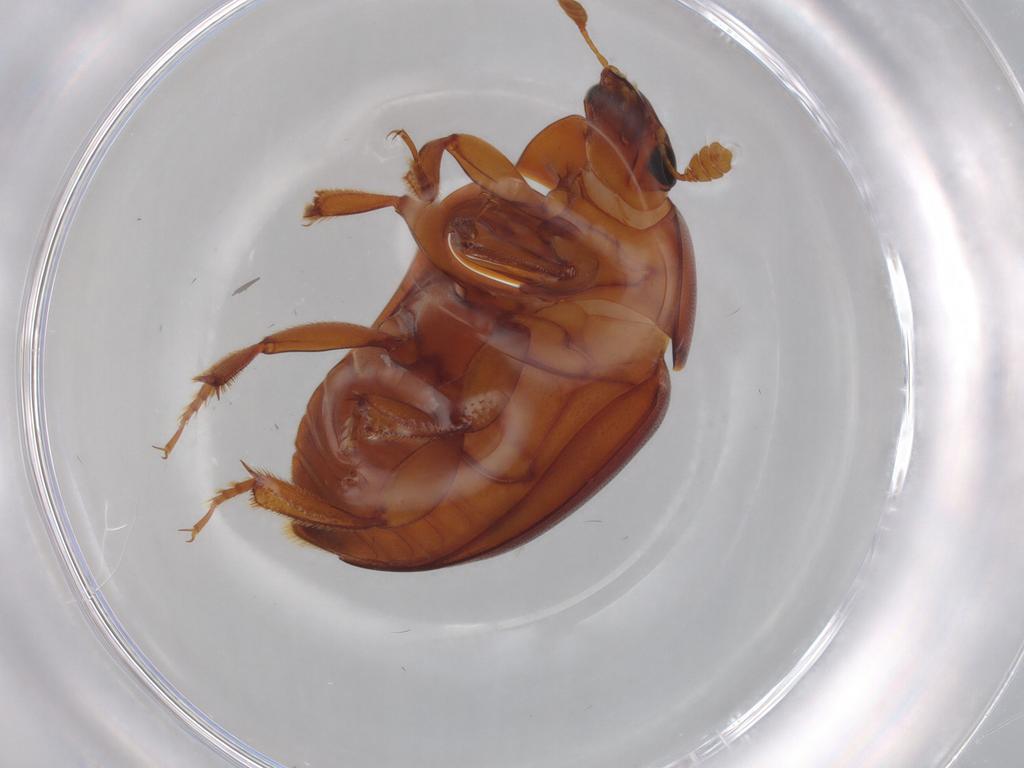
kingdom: Animalia
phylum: Arthropoda
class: Insecta
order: Coleoptera
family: Nitidulidae
